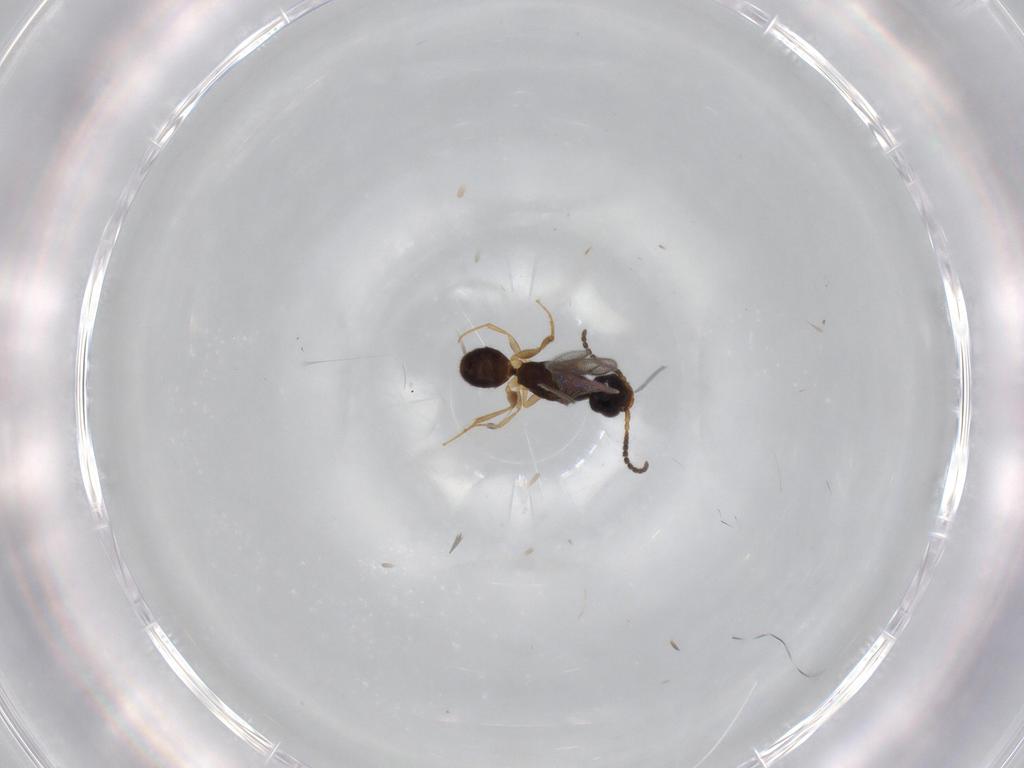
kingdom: Animalia
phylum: Arthropoda
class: Insecta
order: Hymenoptera
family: Bethylidae
